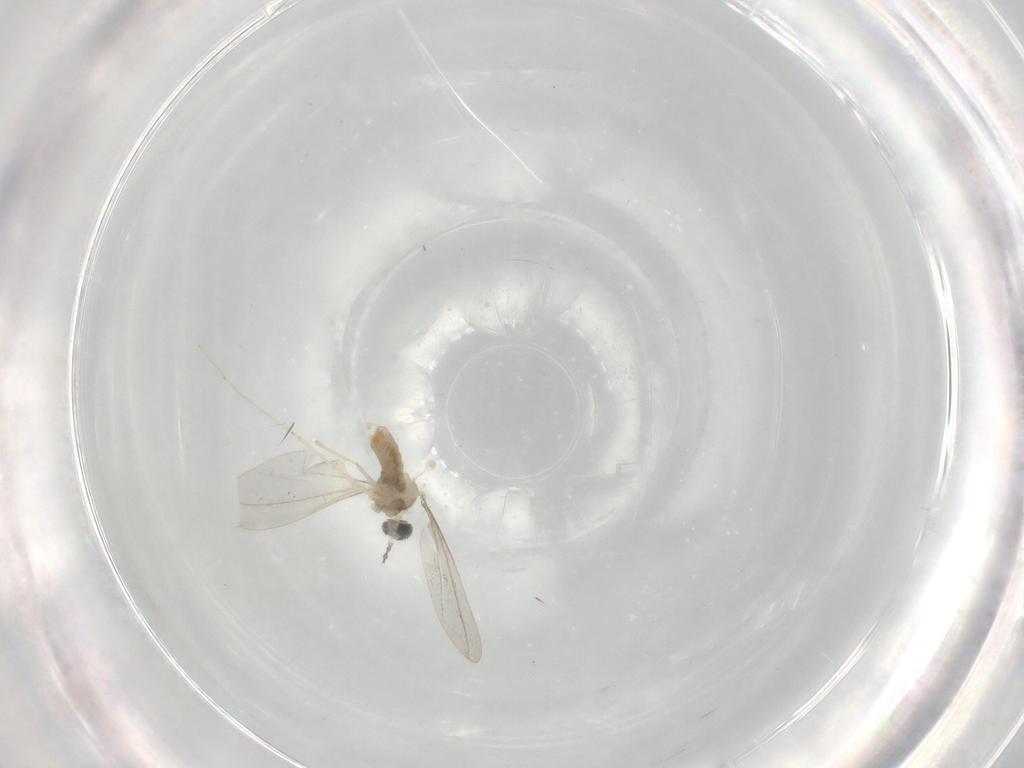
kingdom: Animalia
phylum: Arthropoda
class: Insecta
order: Diptera
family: Cecidomyiidae
